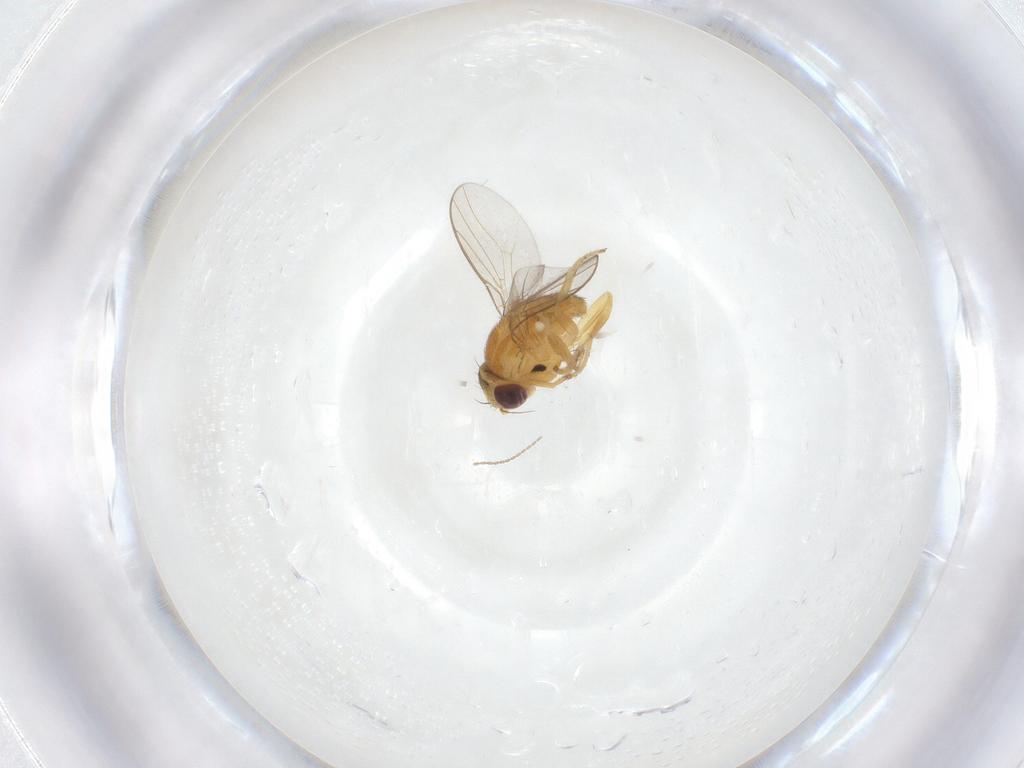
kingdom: Animalia
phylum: Arthropoda
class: Insecta
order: Diptera
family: Chloropidae
